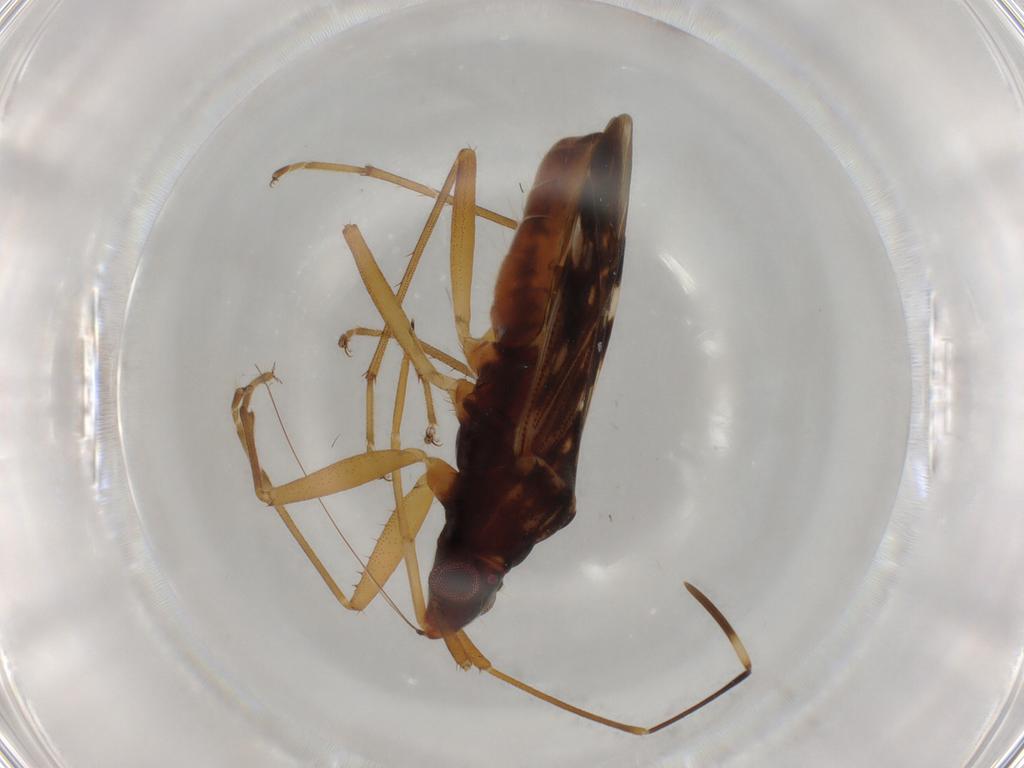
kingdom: Animalia
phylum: Arthropoda
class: Insecta
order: Hemiptera
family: Rhyparochromidae
